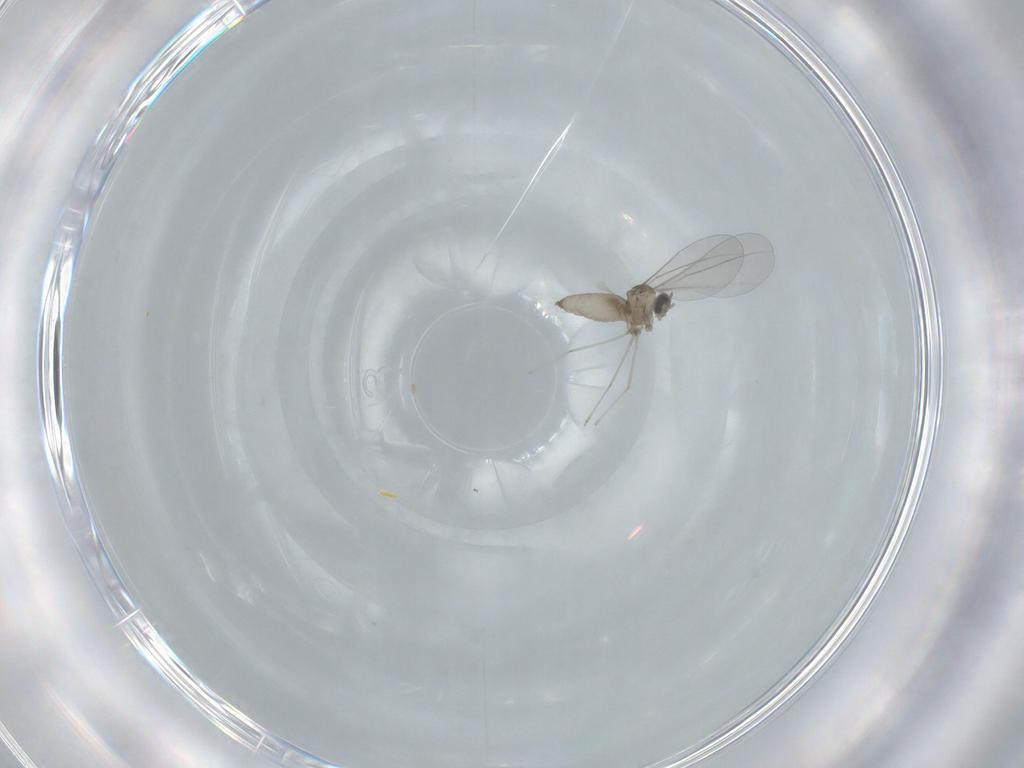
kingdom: Animalia
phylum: Arthropoda
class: Insecta
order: Diptera
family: Cecidomyiidae
